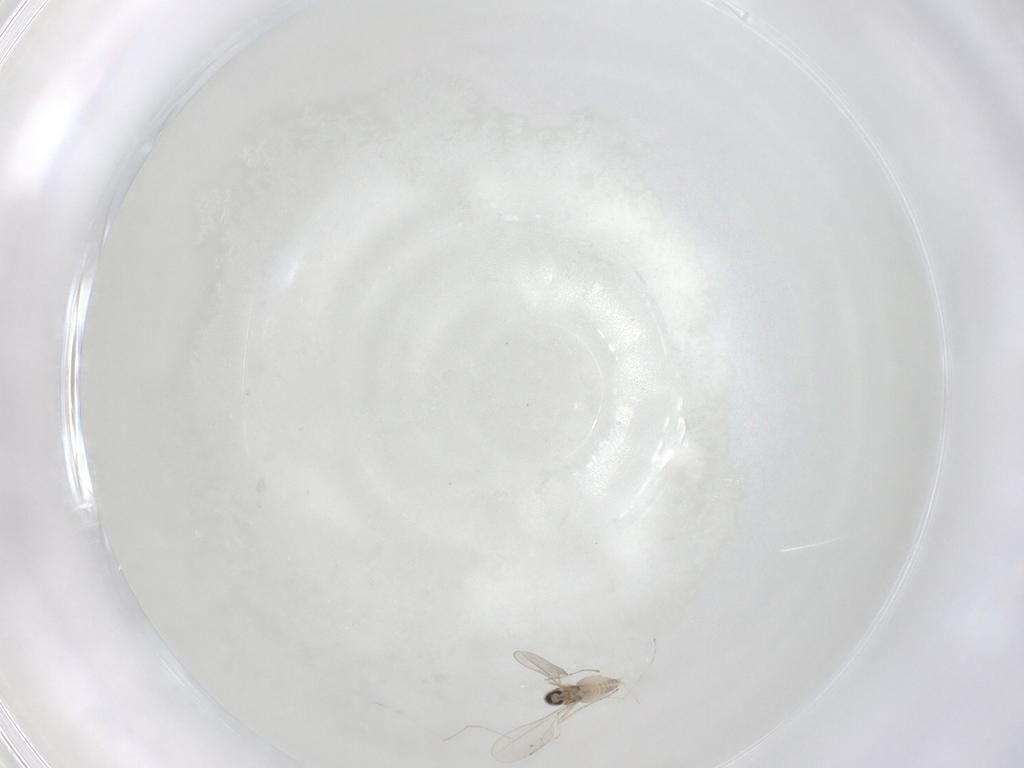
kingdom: Animalia
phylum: Arthropoda
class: Insecta
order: Diptera
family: Cecidomyiidae
